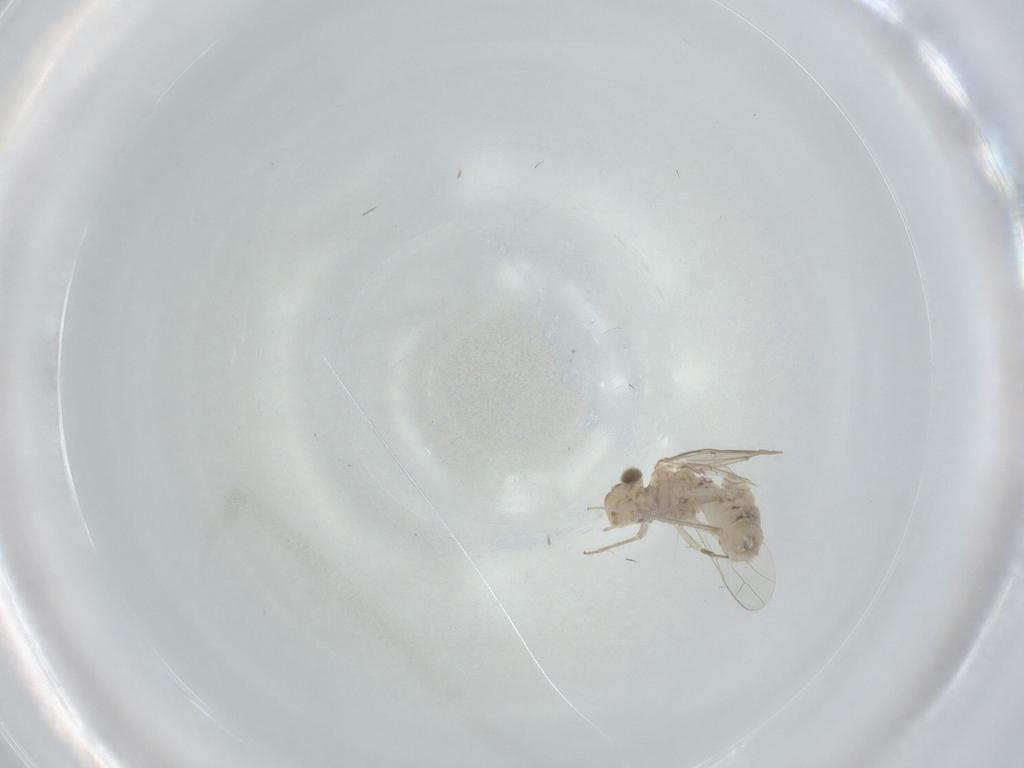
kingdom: Animalia
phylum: Arthropoda
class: Insecta
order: Psocodea
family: Lachesillidae
